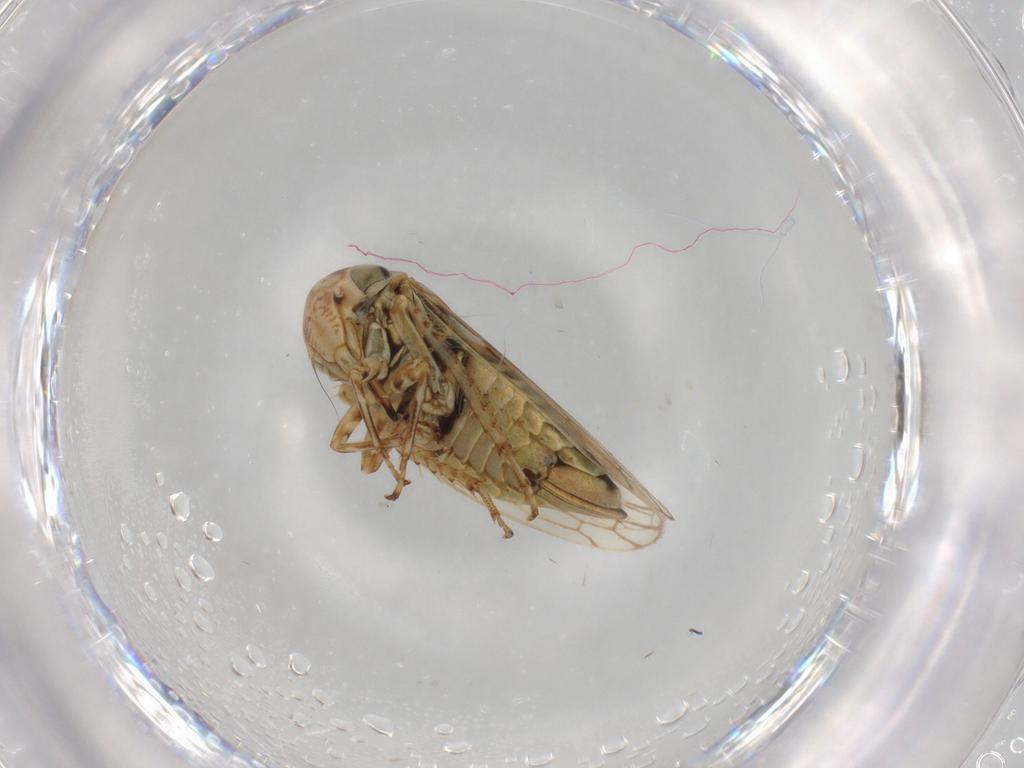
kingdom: Animalia
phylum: Arthropoda
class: Insecta
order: Hemiptera
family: Cicadellidae
